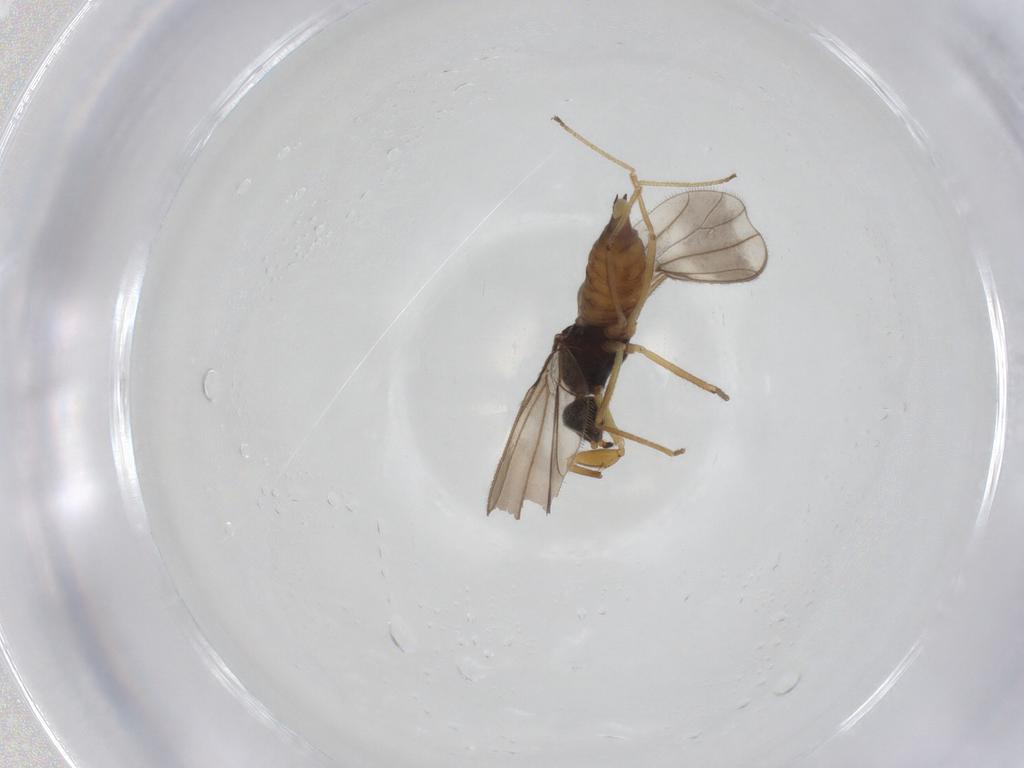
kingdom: Animalia
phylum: Arthropoda
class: Insecta
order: Diptera
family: Empididae
